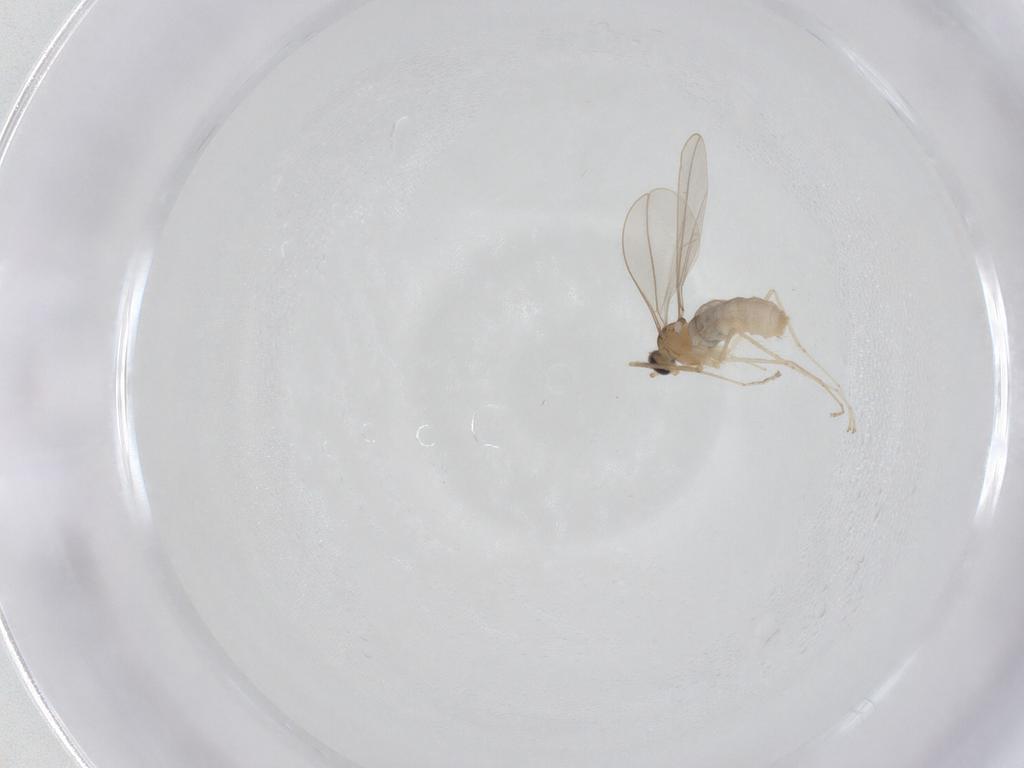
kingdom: Animalia
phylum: Arthropoda
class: Insecta
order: Diptera
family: Cecidomyiidae
